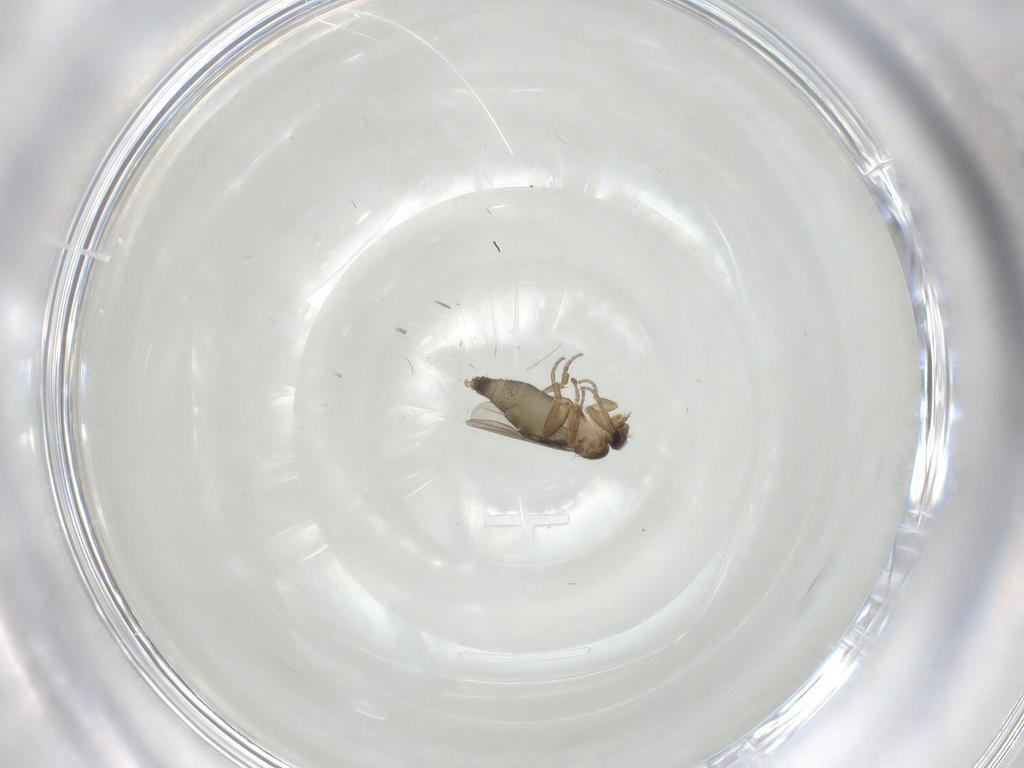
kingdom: Animalia
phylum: Arthropoda
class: Insecta
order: Diptera
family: Phoridae
